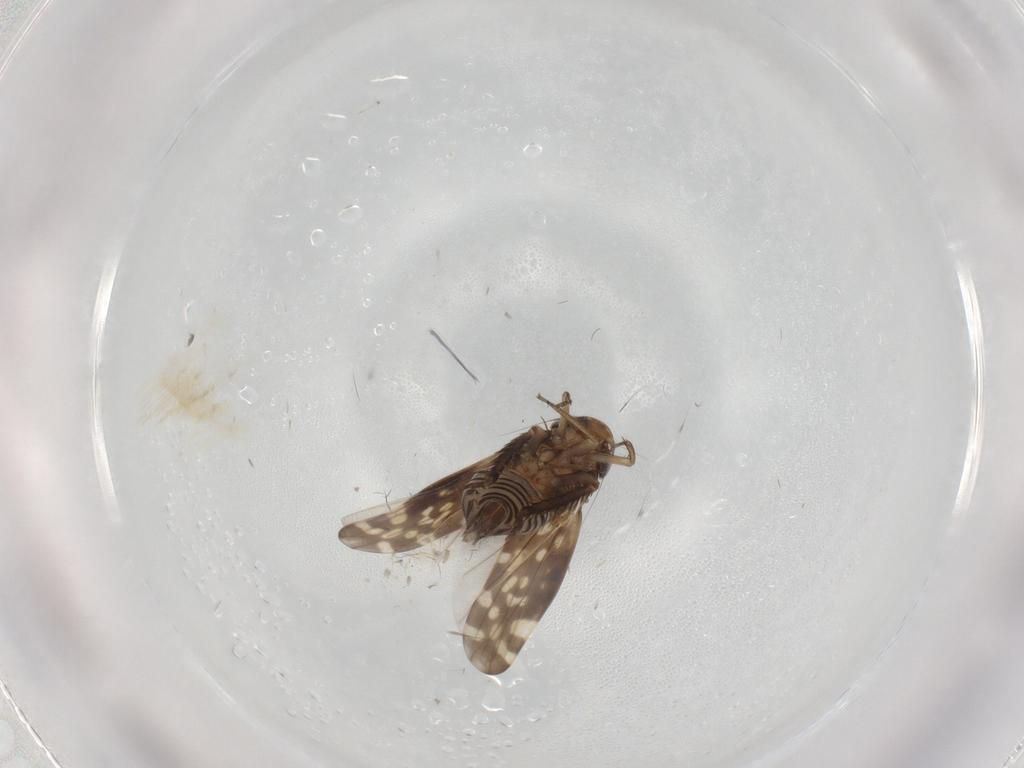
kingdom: Animalia
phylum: Arthropoda
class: Insecta
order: Hemiptera
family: Cicadellidae
